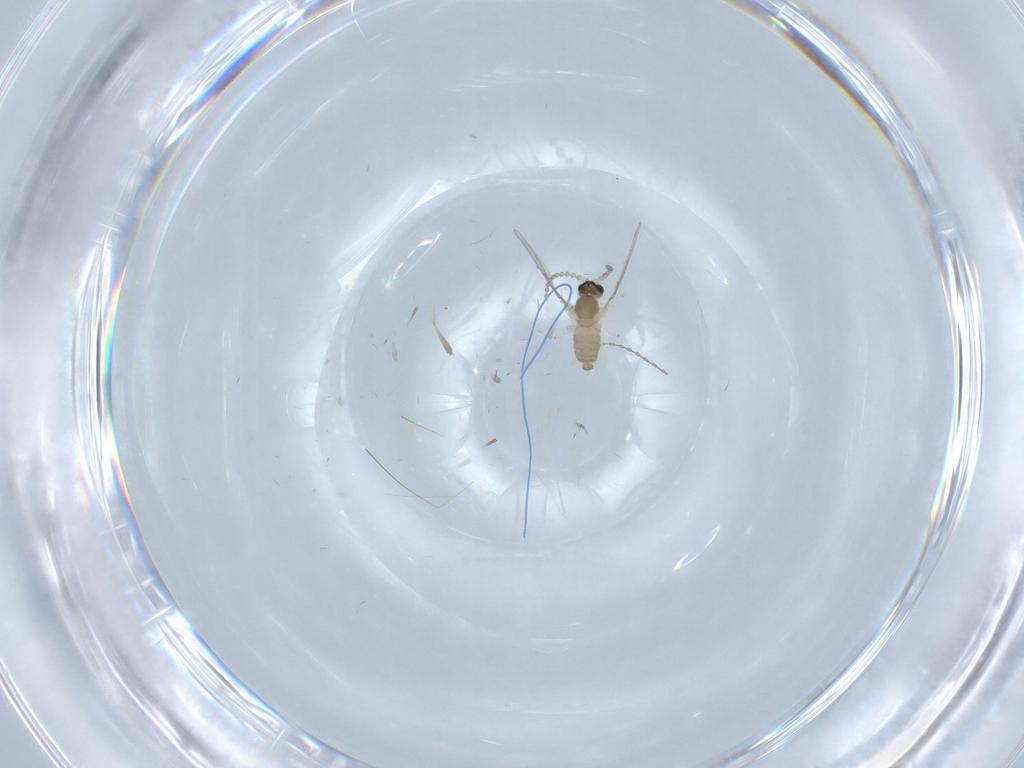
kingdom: Animalia
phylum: Arthropoda
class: Insecta
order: Diptera
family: Cecidomyiidae
